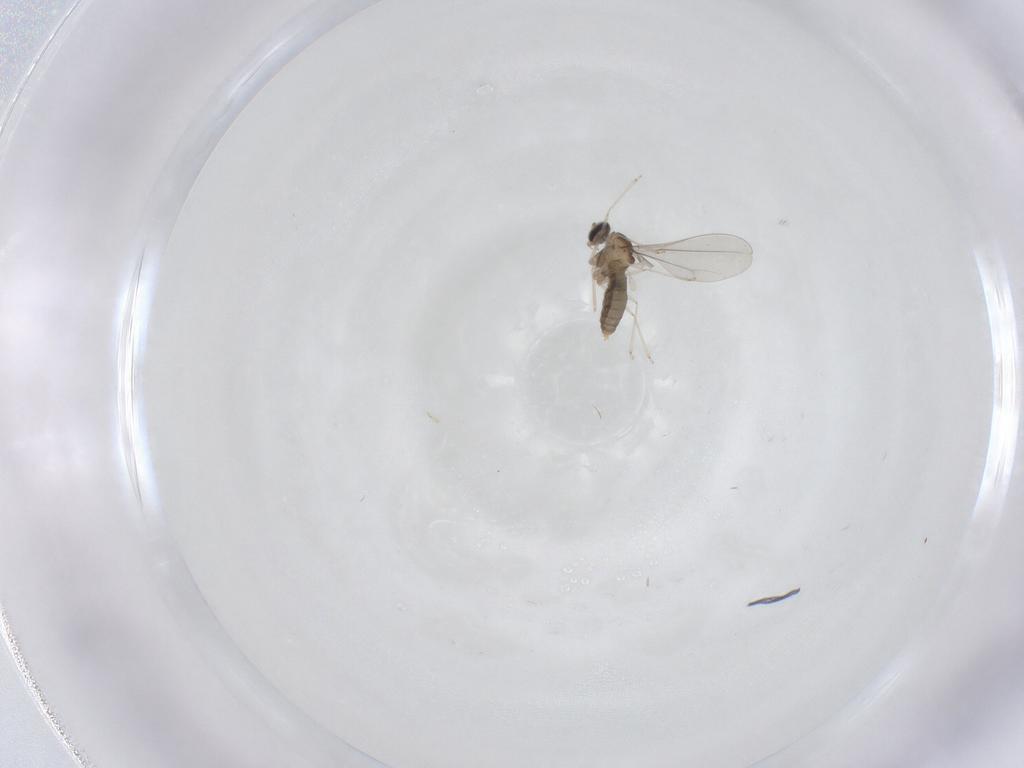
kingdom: Animalia
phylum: Arthropoda
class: Insecta
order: Diptera
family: Cecidomyiidae
